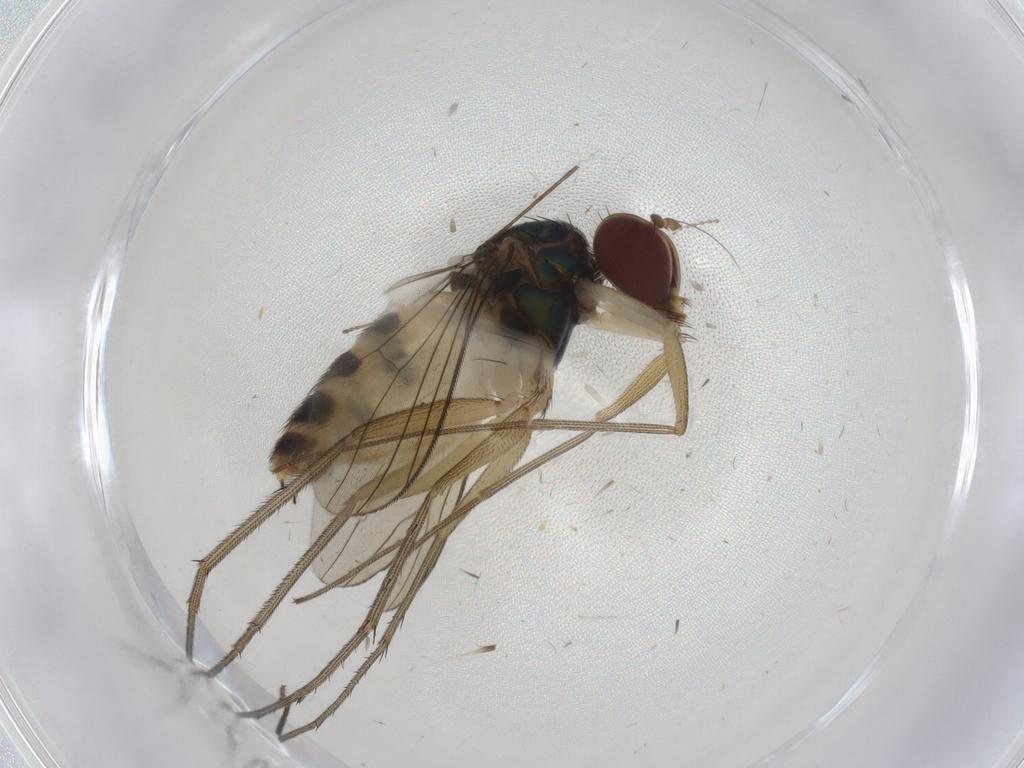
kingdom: Animalia
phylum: Arthropoda
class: Insecta
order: Diptera
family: Dolichopodidae
